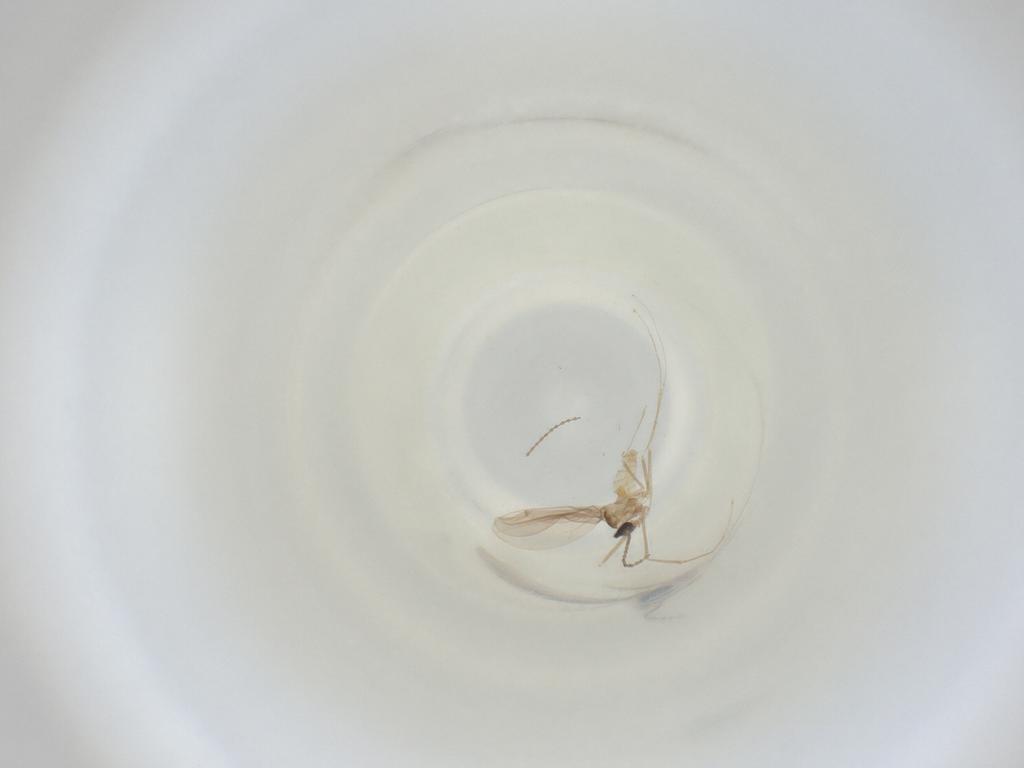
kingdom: Animalia
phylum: Arthropoda
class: Insecta
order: Diptera
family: Cecidomyiidae
